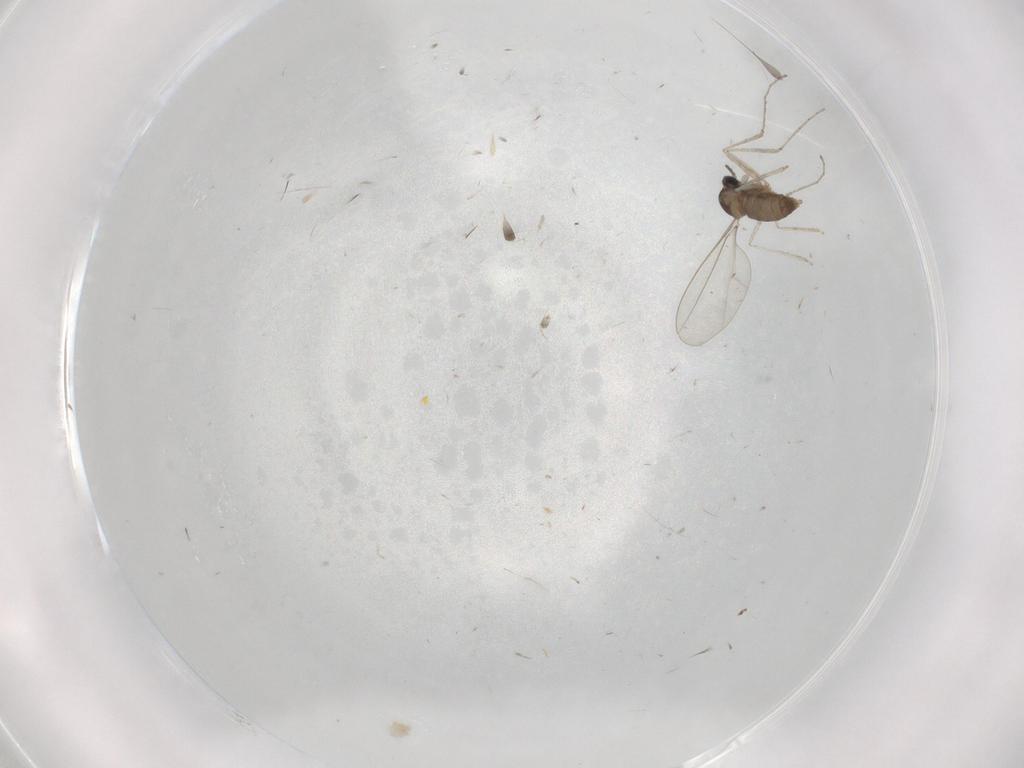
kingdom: Animalia
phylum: Arthropoda
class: Insecta
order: Diptera
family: Cecidomyiidae
